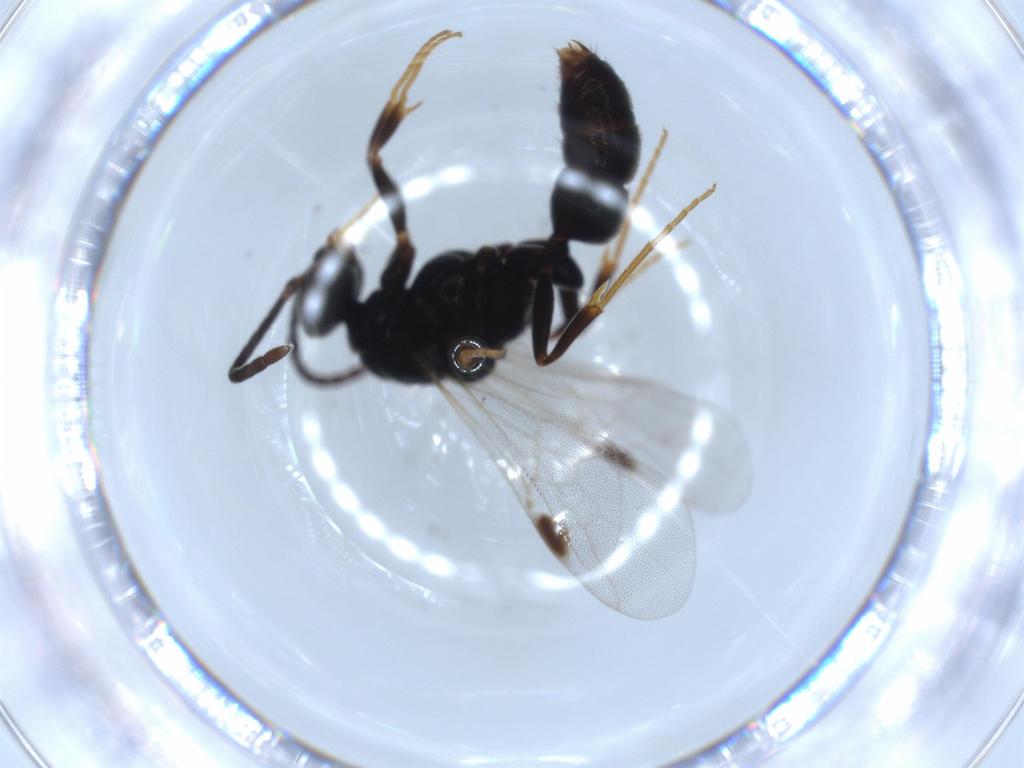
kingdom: Animalia
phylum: Arthropoda
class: Insecta
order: Hymenoptera
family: Formicidae
